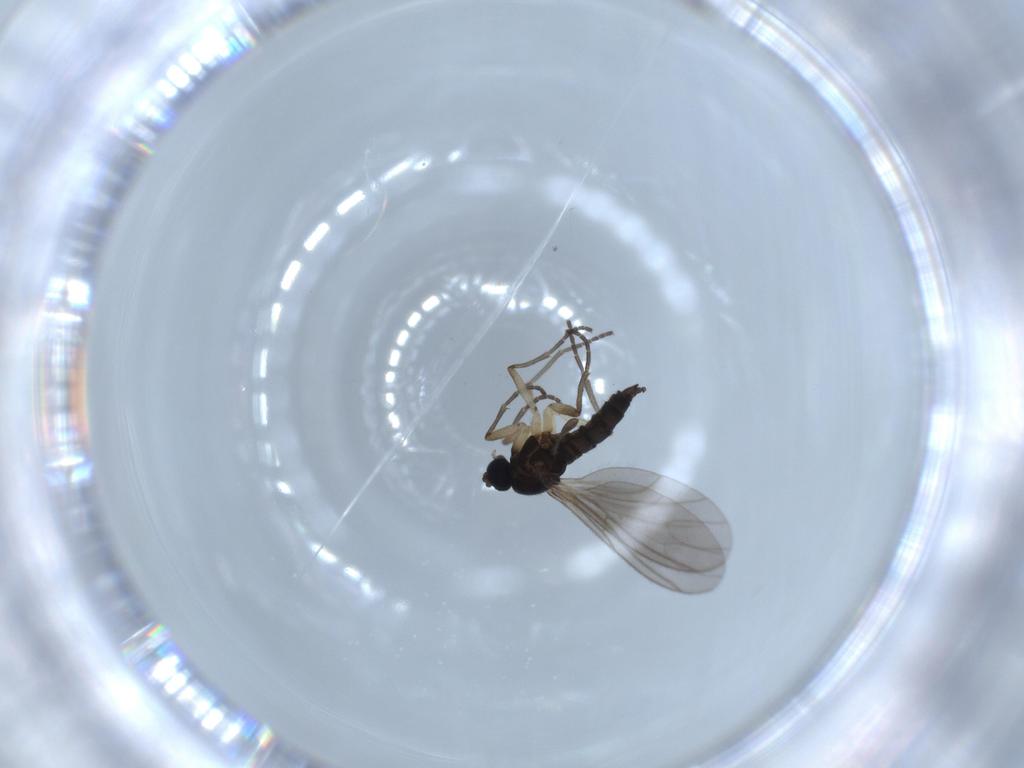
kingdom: Animalia
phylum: Arthropoda
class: Insecta
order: Diptera
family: Sciaridae
